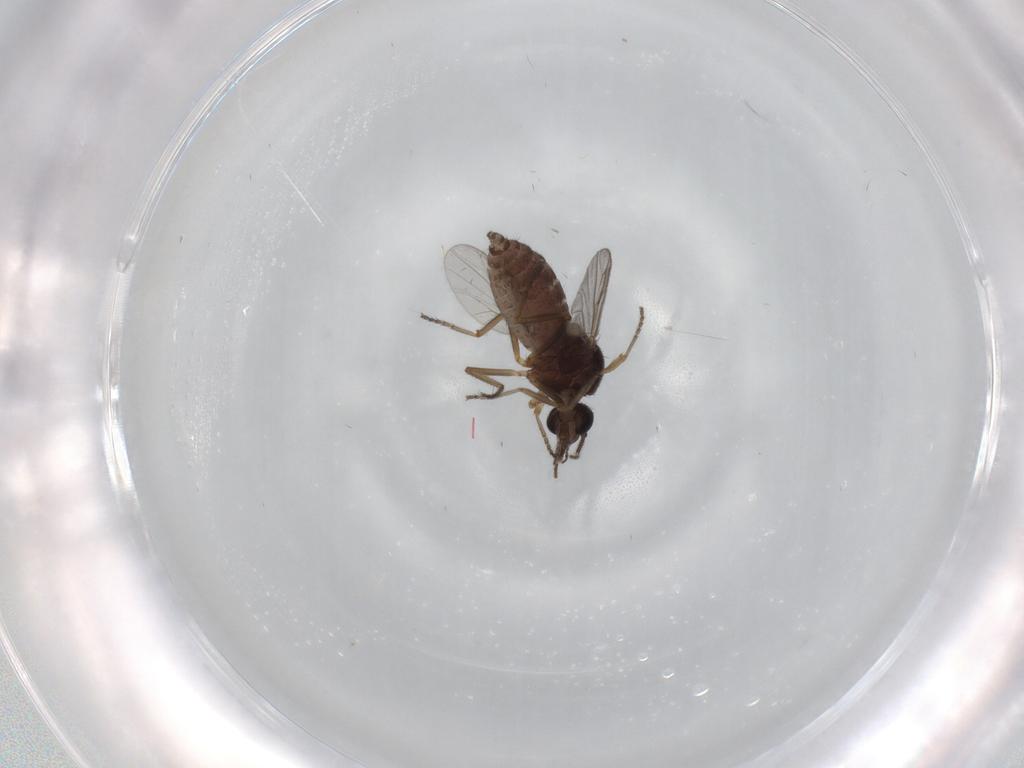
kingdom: Animalia
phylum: Arthropoda
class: Insecta
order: Diptera
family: Ceratopogonidae
